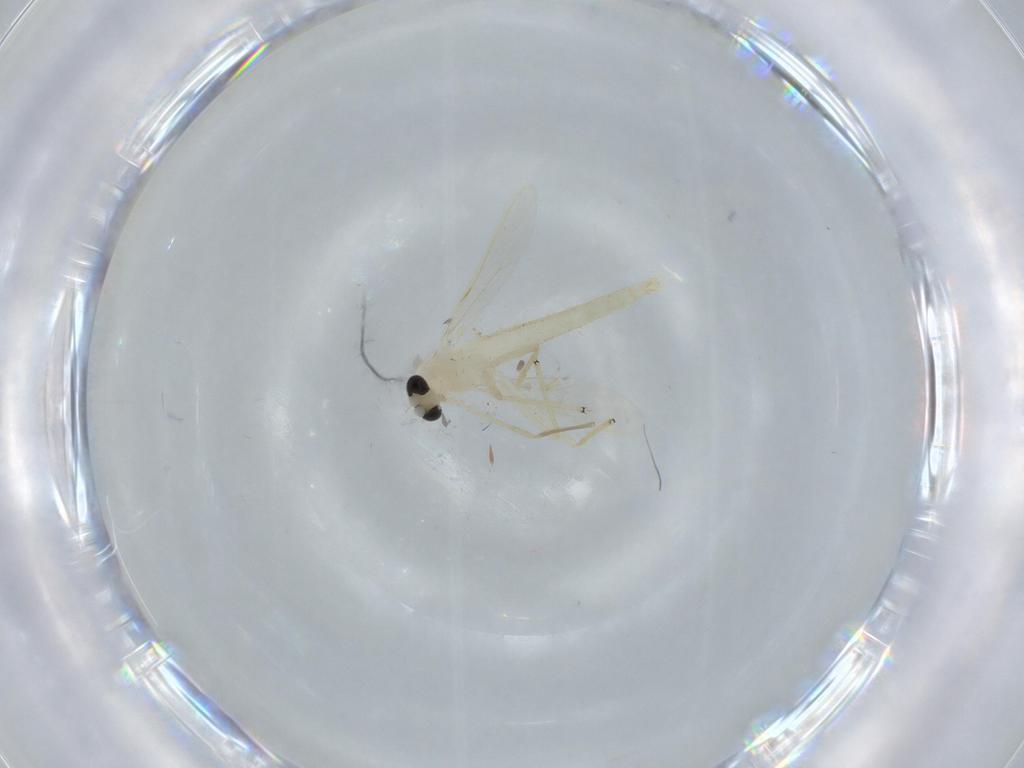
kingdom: Animalia
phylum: Arthropoda
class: Insecta
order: Diptera
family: Chironomidae
